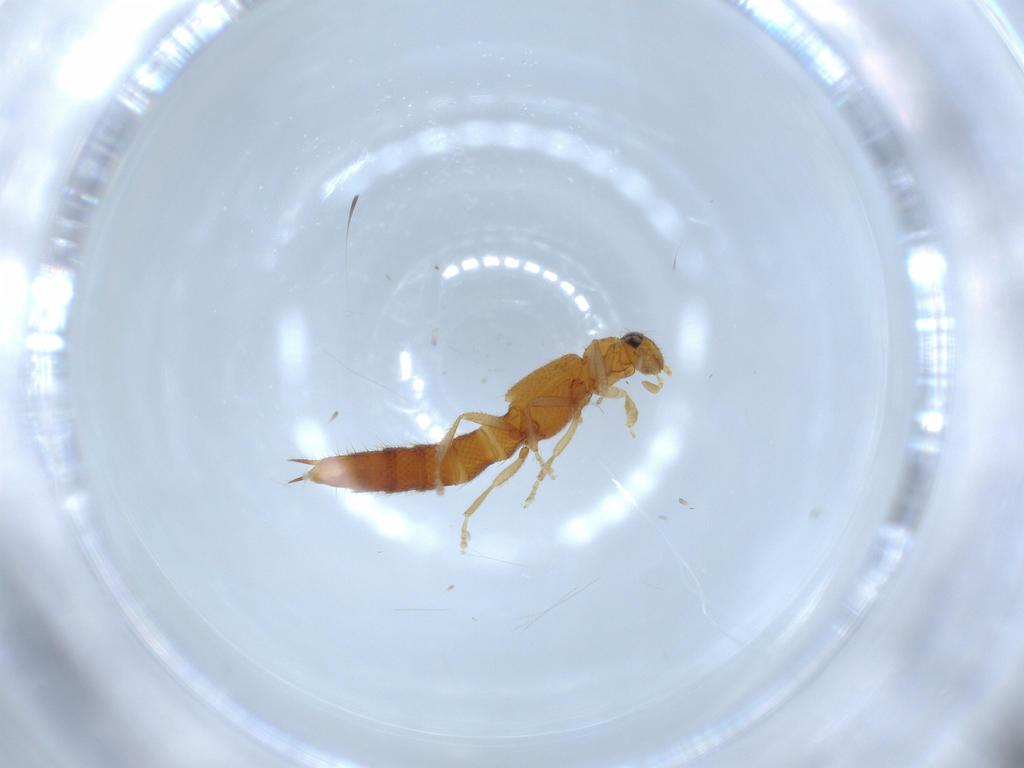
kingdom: Animalia
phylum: Arthropoda
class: Insecta
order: Coleoptera
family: Staphylinidae
